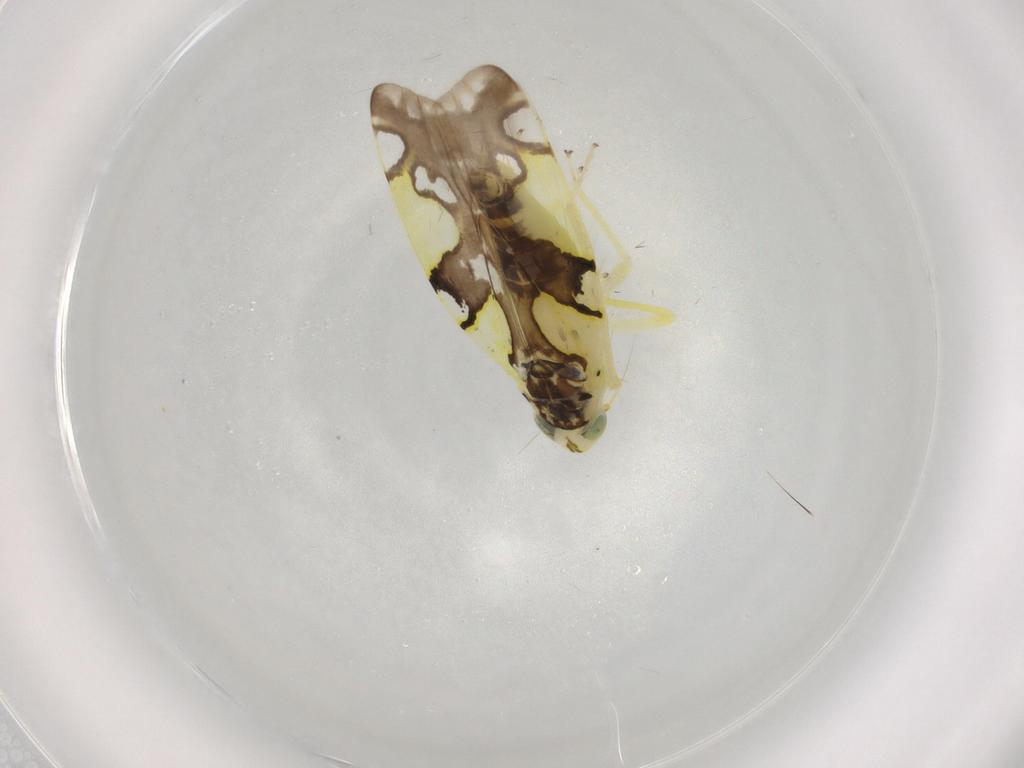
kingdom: Animalia
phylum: Arthropoda
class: Insecta
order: Hemiptera
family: Cicadellidae
